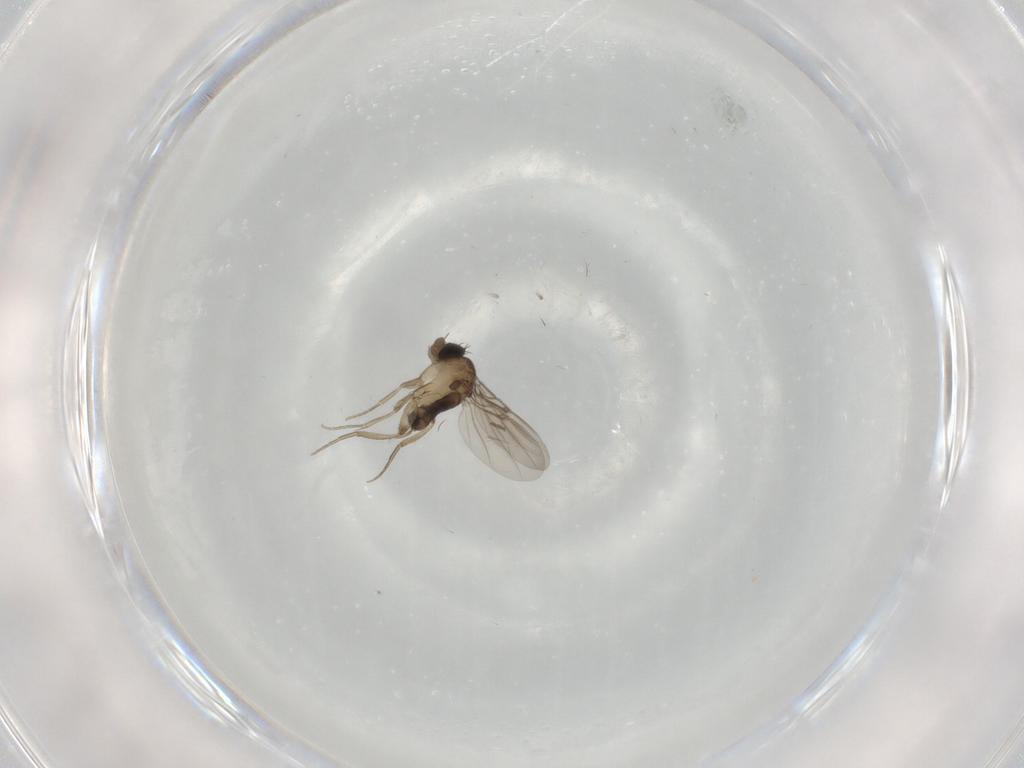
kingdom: Animalia
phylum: Arthropoda
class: Insecta
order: Diptera
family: Phoridae
